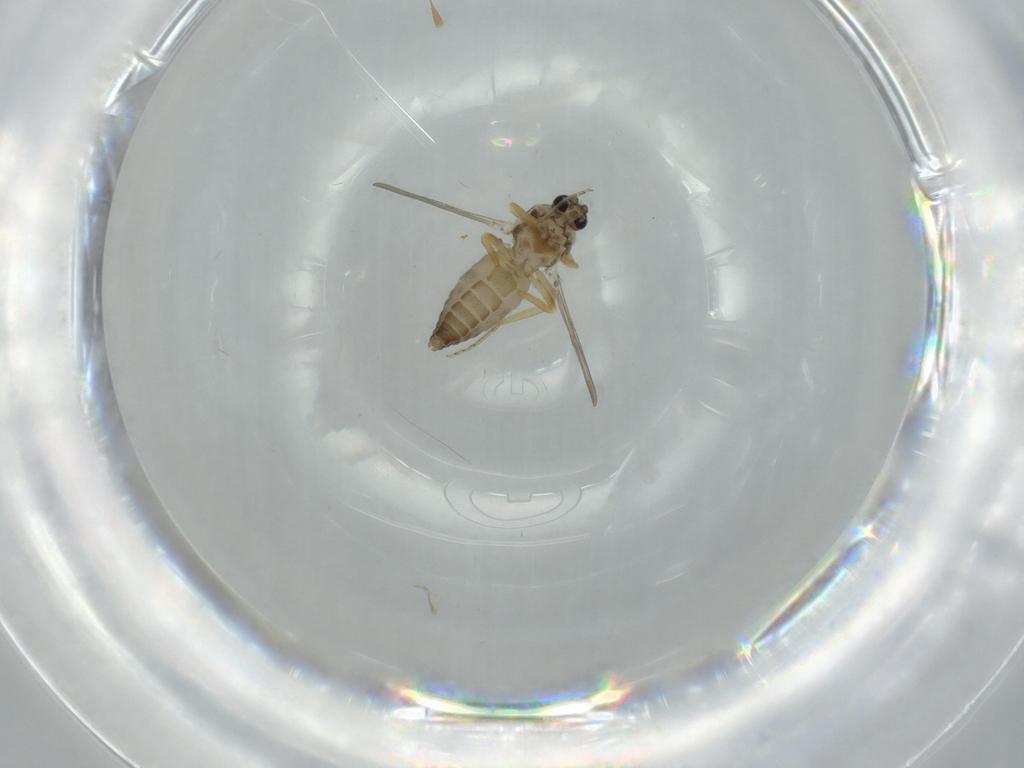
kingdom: Animalia
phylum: Arthropoda
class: Insecta
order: Diptera
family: Ceratopogonidae
